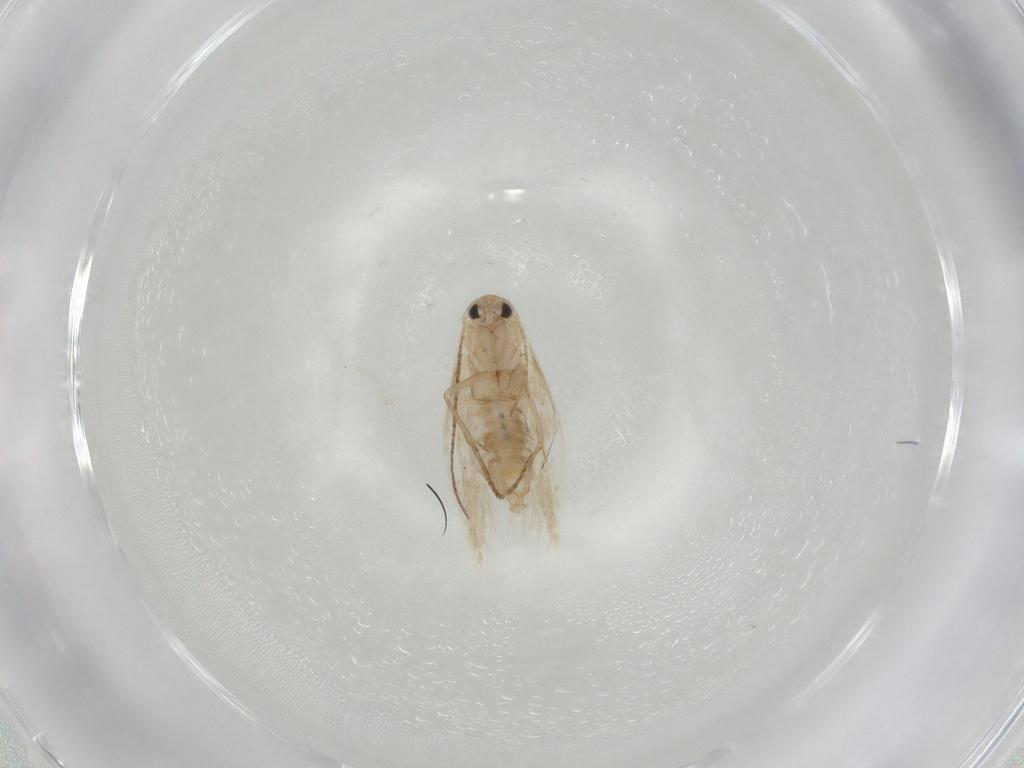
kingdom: Animalia
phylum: Arthropoda
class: Insecta
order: Lepidoptera
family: Bucculatricidae
